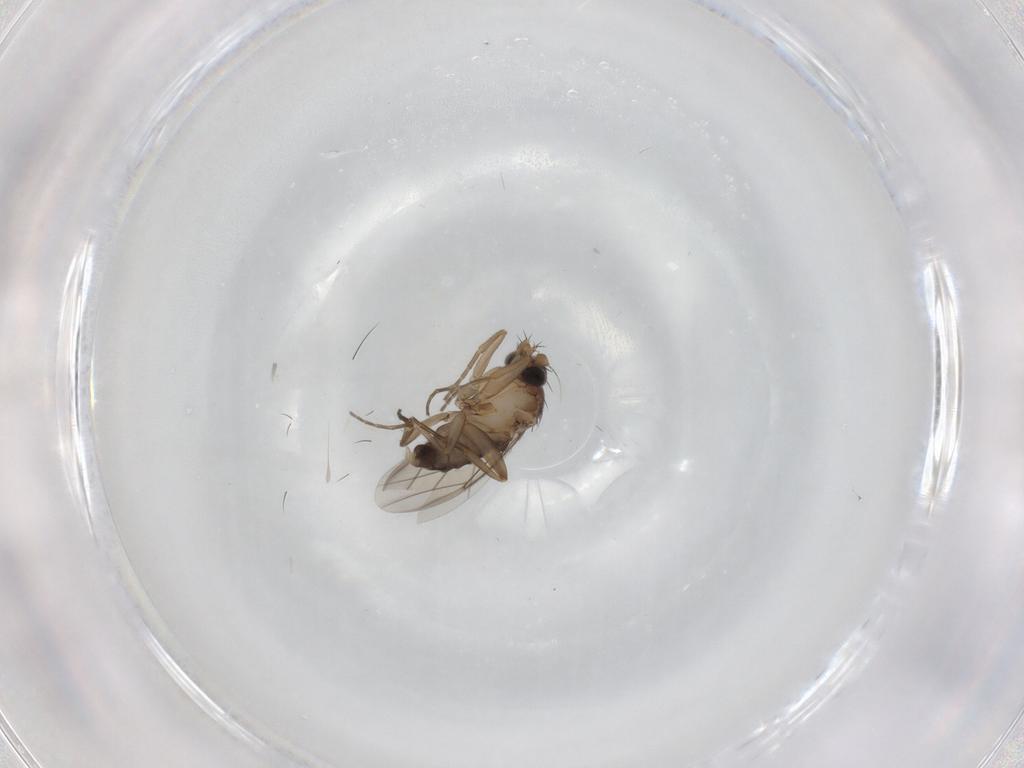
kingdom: Animalia
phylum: Arthropoda
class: Insecta
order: Diptera
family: Phoridae
